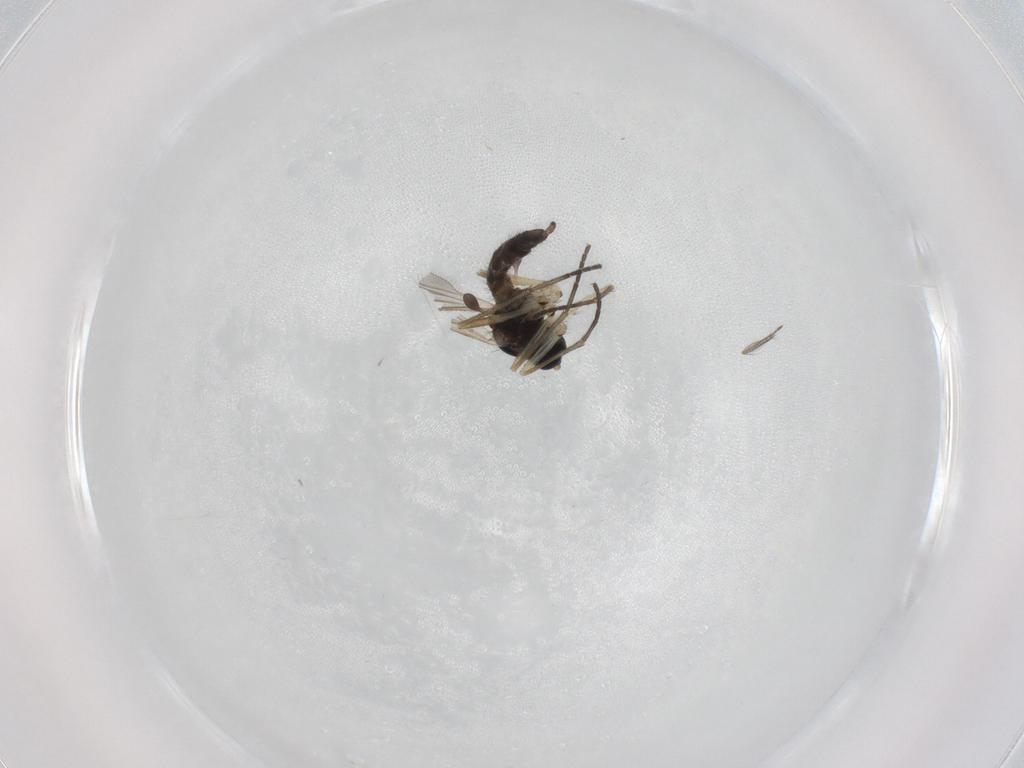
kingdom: Animalia
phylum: Arthropoda
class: Insecta
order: Diptera
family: Sciaridae
